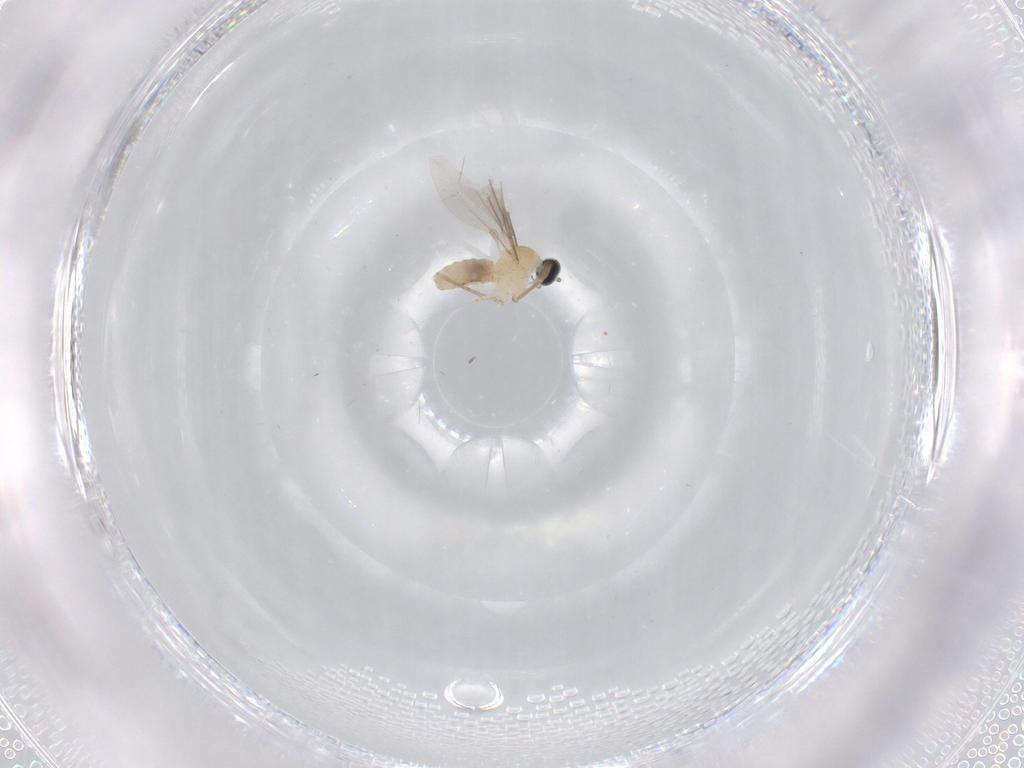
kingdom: Animalia
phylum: Arthropoda
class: Insecta
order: Diptera
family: Cecidomyiidae
